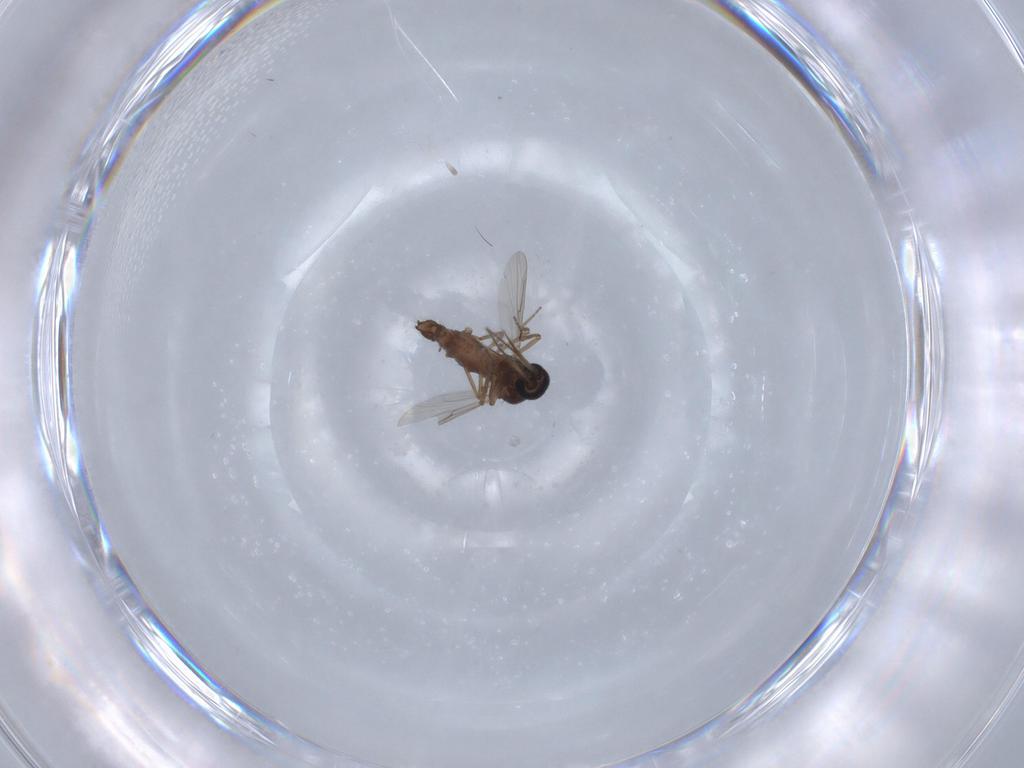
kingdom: Animalia
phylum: Arthropoda
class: Insecta
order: Diptera
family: Ceratopogonidae
